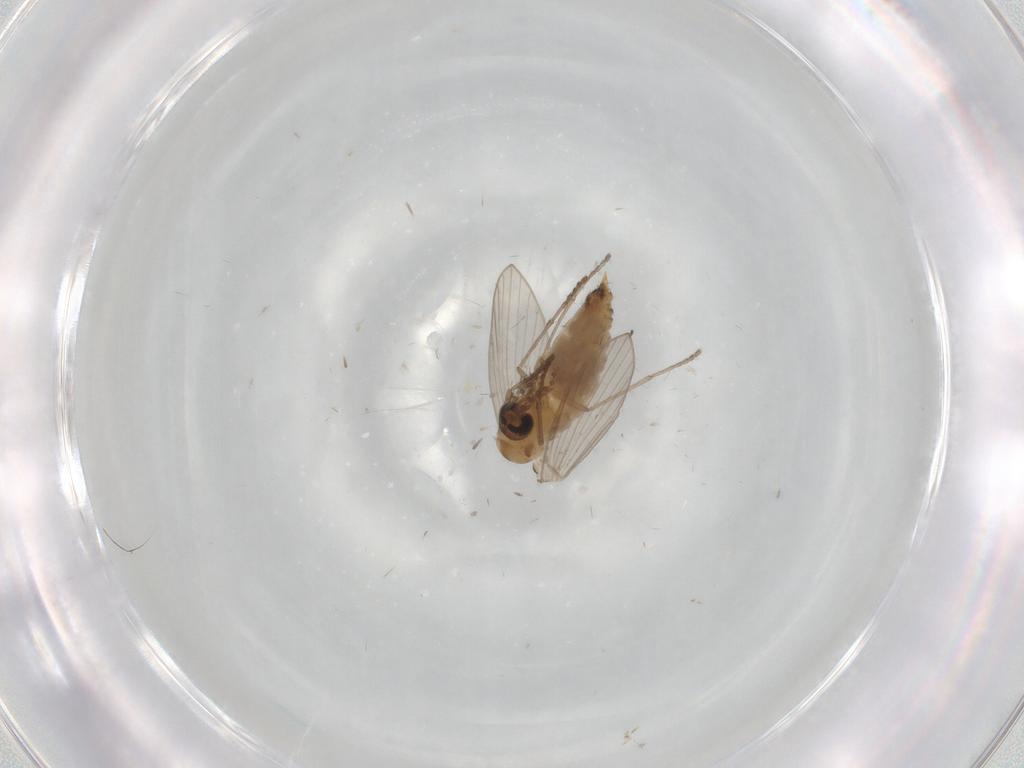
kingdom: Animalia
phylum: Arthropoda
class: Insecta
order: Diptera
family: Psychodidae
